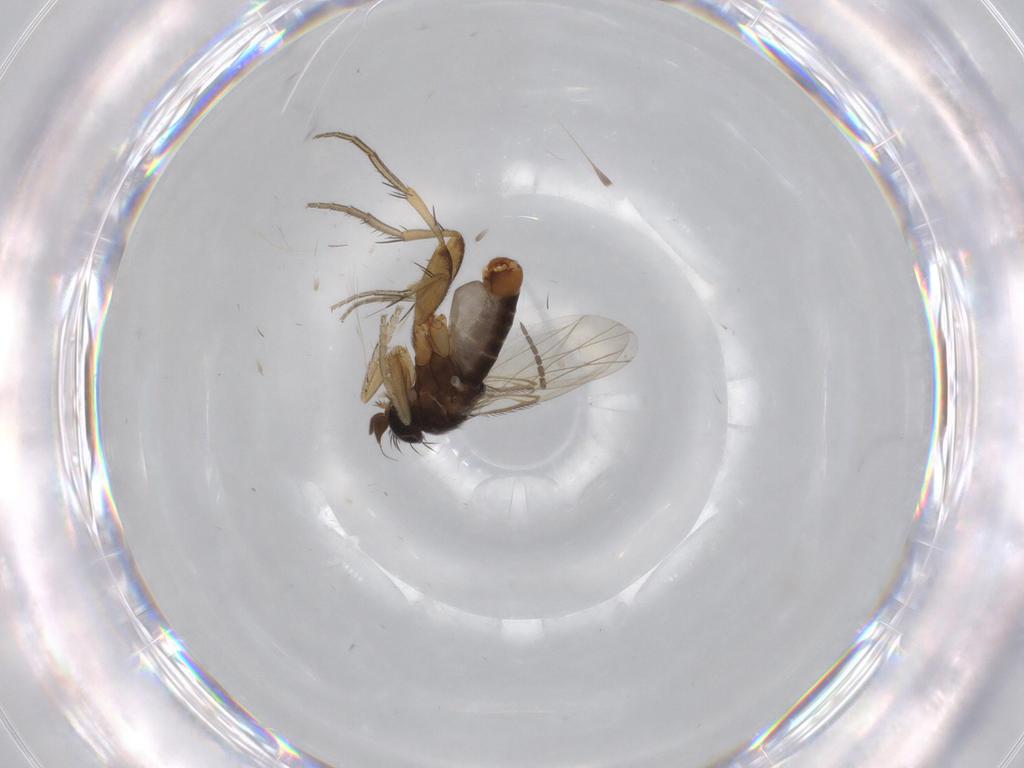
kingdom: Animalia
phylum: Arthropoda
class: Insecta
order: Diptera
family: Phoridae
